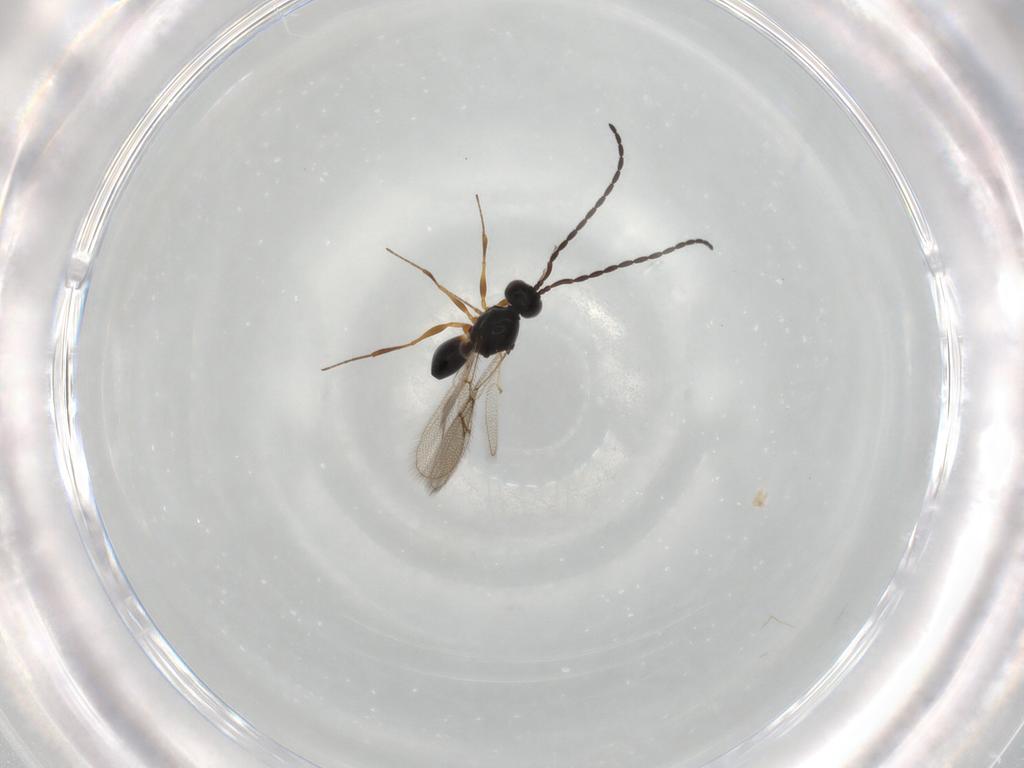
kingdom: Animalia
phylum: Arthropoda
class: Insecta
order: Hymenoptera
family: Figitidae
